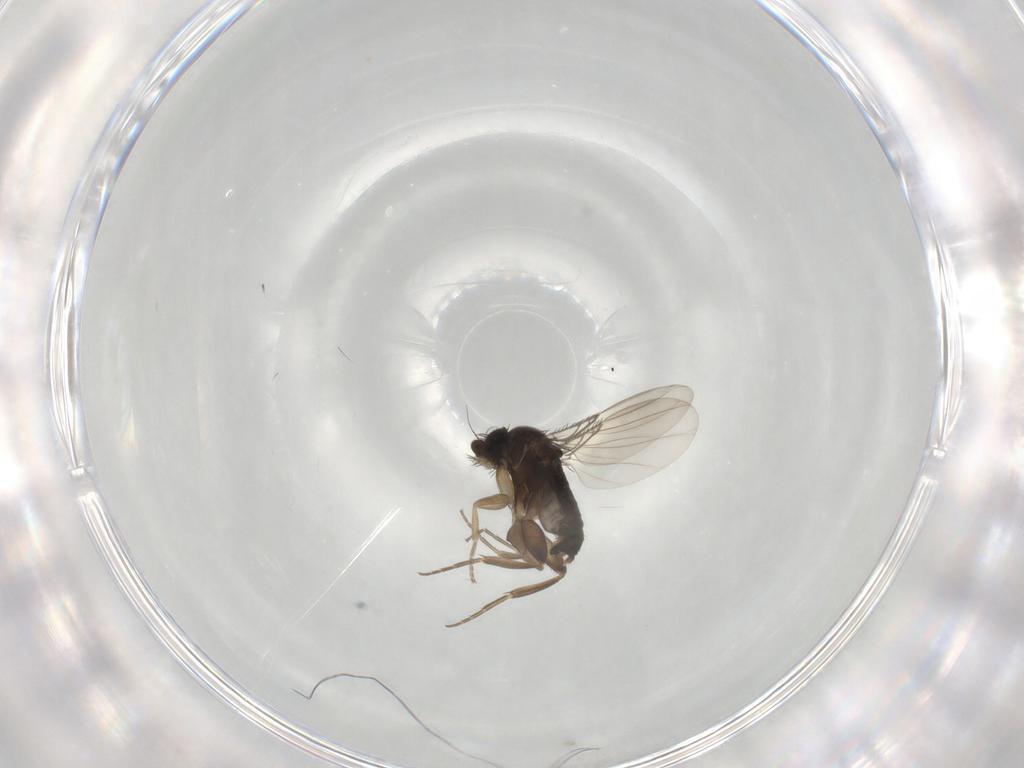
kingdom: Animalia
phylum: Arthropoda
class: Insecta
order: Diptera
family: Phoridae
